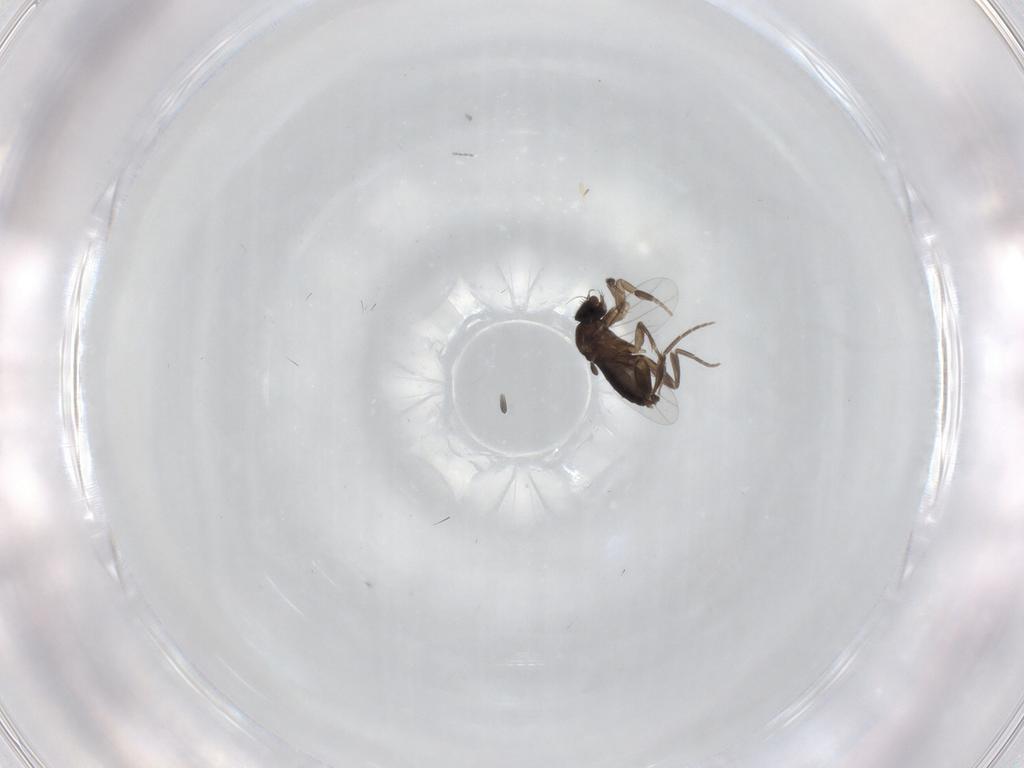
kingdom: Animalia
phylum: Arthropoda
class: Insecta
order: Diptera
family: Phoridae
